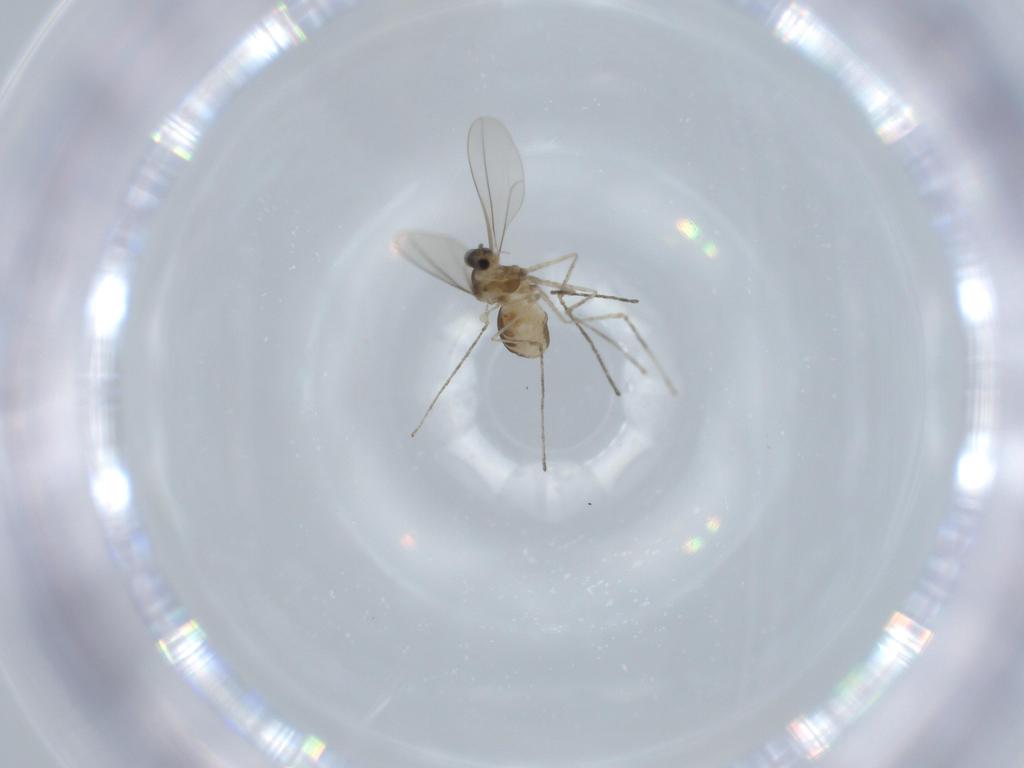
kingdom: Animalia
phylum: Arthropoda
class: Insecta
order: Diptera
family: Cecidomyiidae
